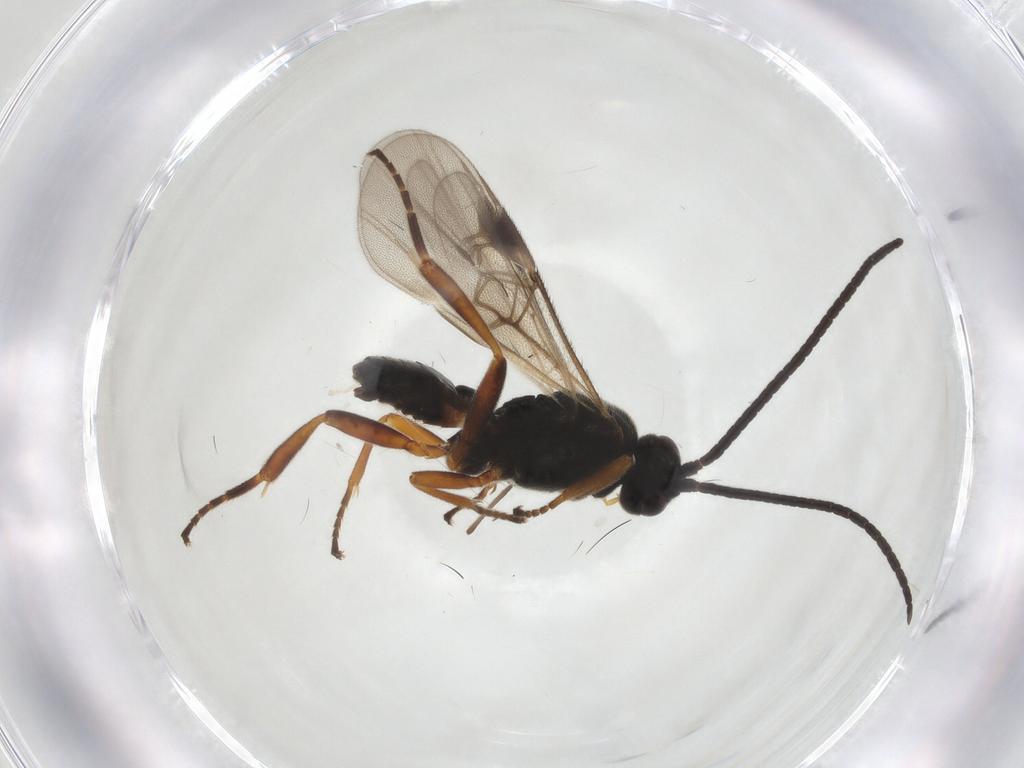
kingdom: Animalia
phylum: Arthropoda
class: Insecta
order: Hymenoptera
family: Braconidae
